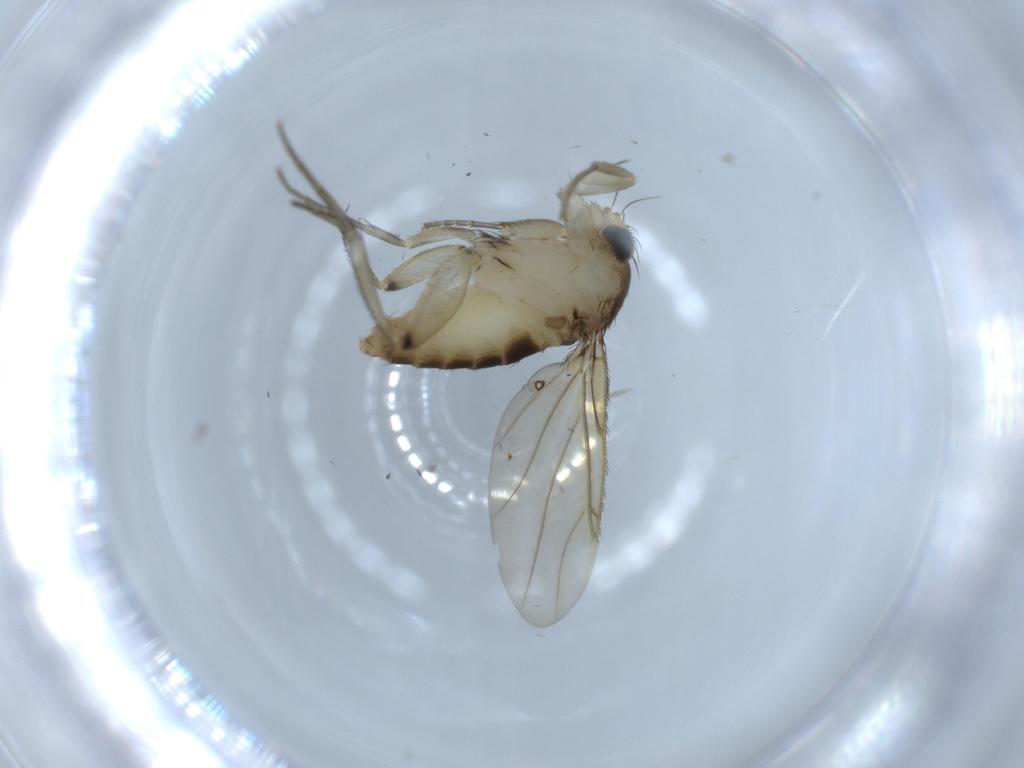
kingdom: Animalia
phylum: Arthropoda
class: Insecta
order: Diptera
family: Phoridae
